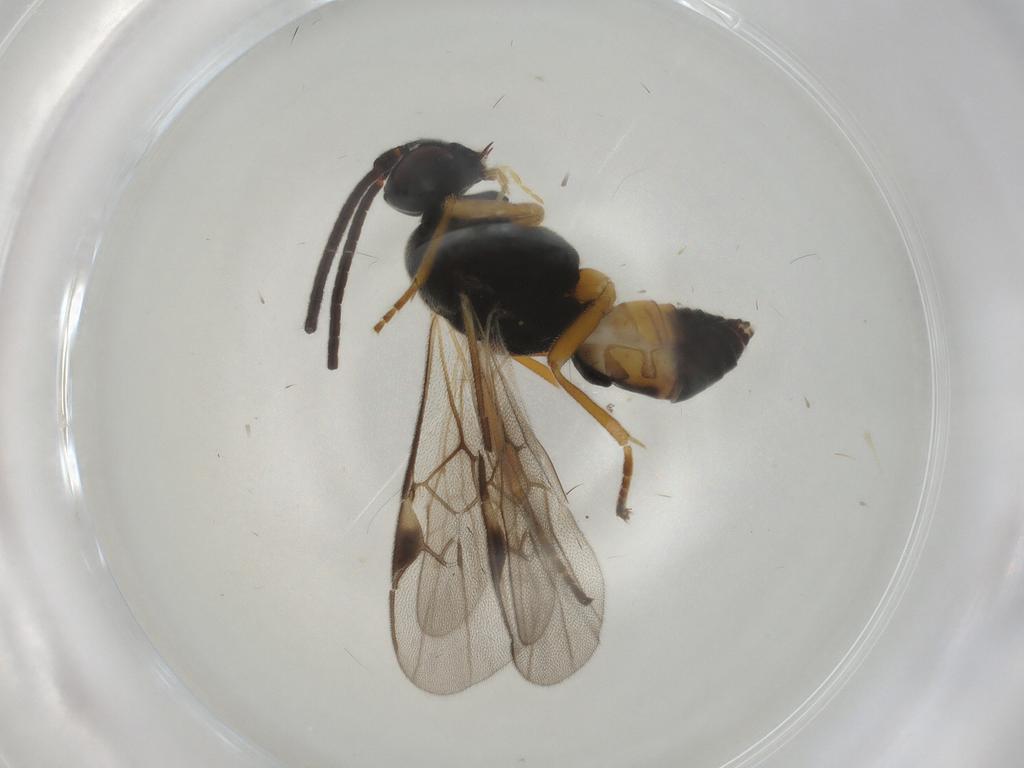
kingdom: Animalia
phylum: Arthropoda
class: Insecta
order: Hymenoptera
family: Braconidae
